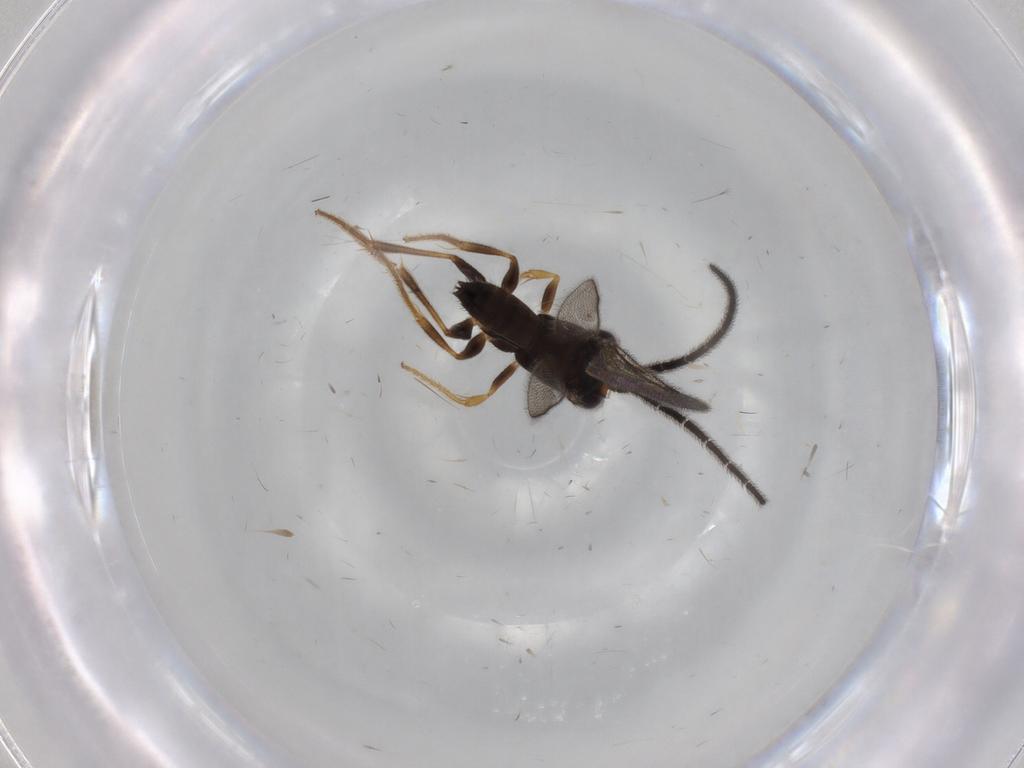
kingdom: Animalia
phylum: Arthropoda
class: Insecta
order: Hymenoptera
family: Dryinidae
